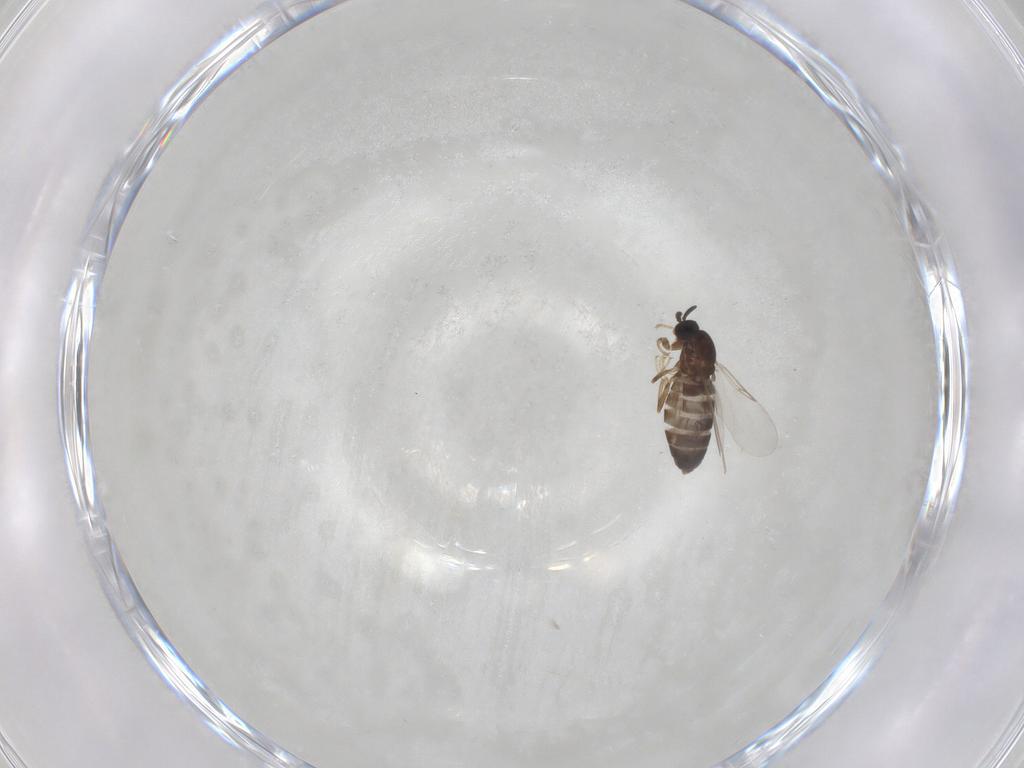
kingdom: Animalia
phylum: Arthropoda
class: Insecta
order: Diptera
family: Scatopsidae
